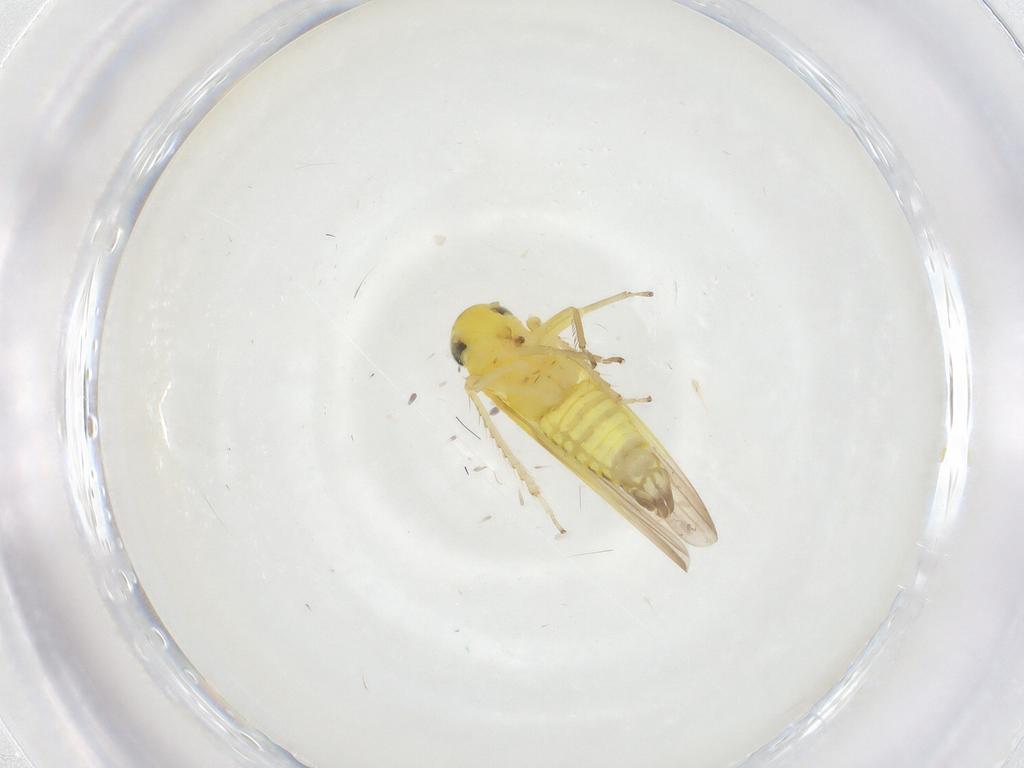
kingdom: Animalia
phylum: Arthropoda
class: Insecta
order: Hemiptera
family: Cicadellidae
